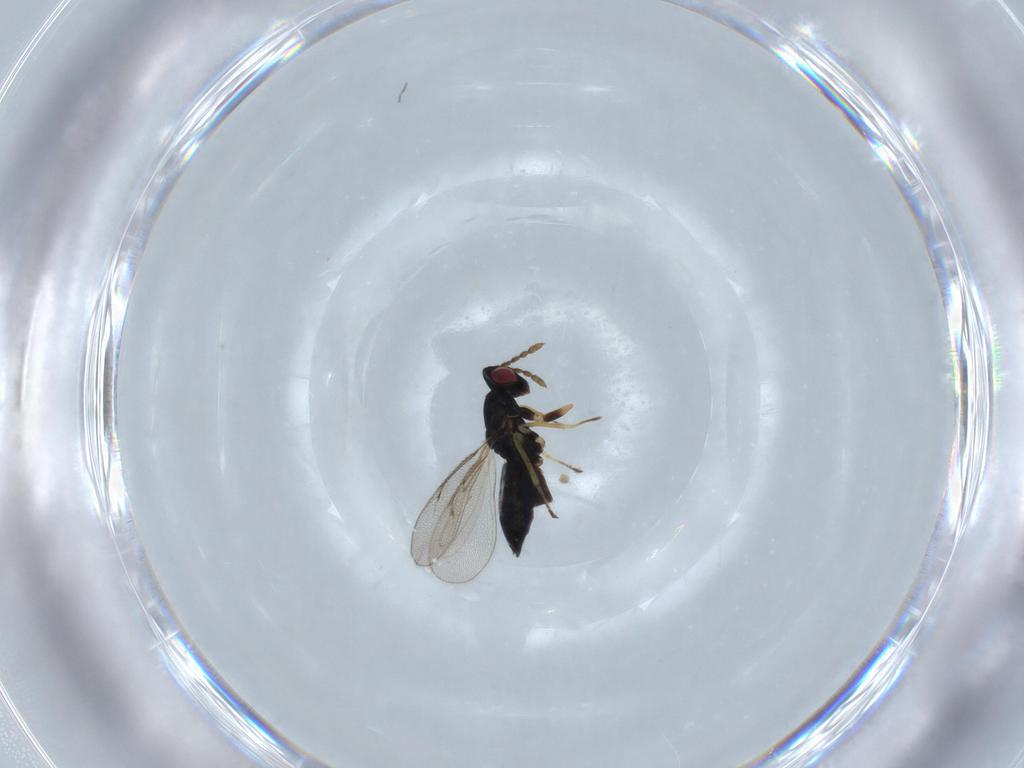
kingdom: Animalia
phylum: Arthropoda
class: Insecta
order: Hymenoptera
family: Eulophidae
